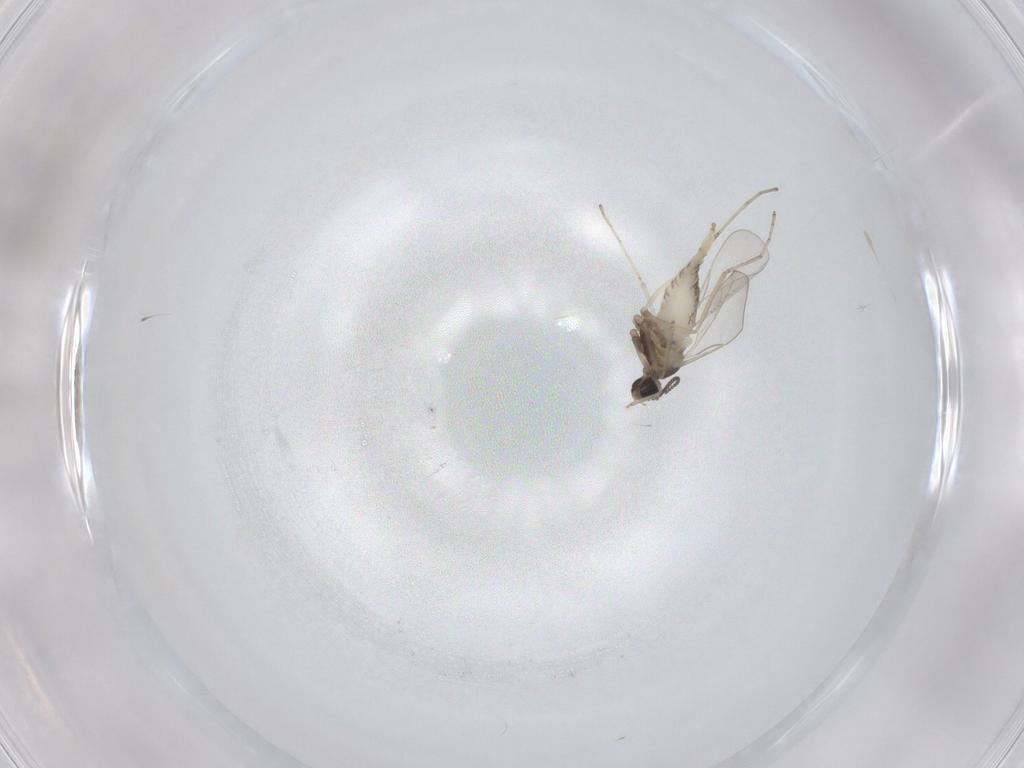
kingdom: Animalia
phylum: Arthropoda
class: Insecta
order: Diptera
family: Cecidomyiidae
